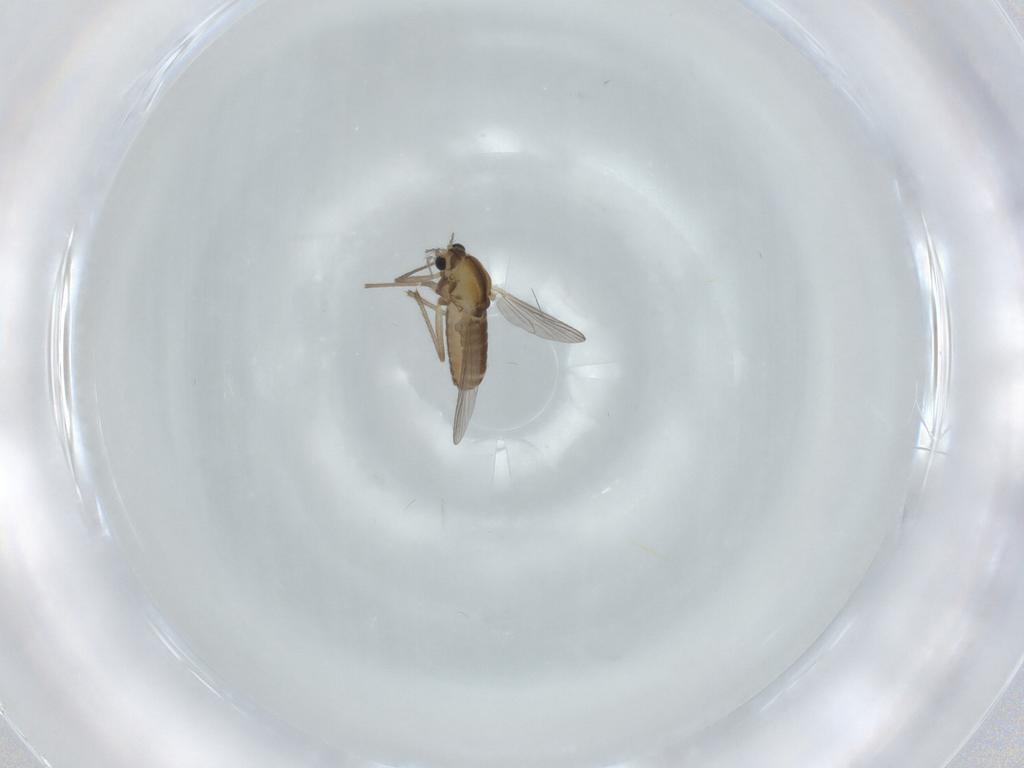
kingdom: Animalia
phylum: Arthropoda
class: Insecta
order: Diptera
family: Chironomidae
